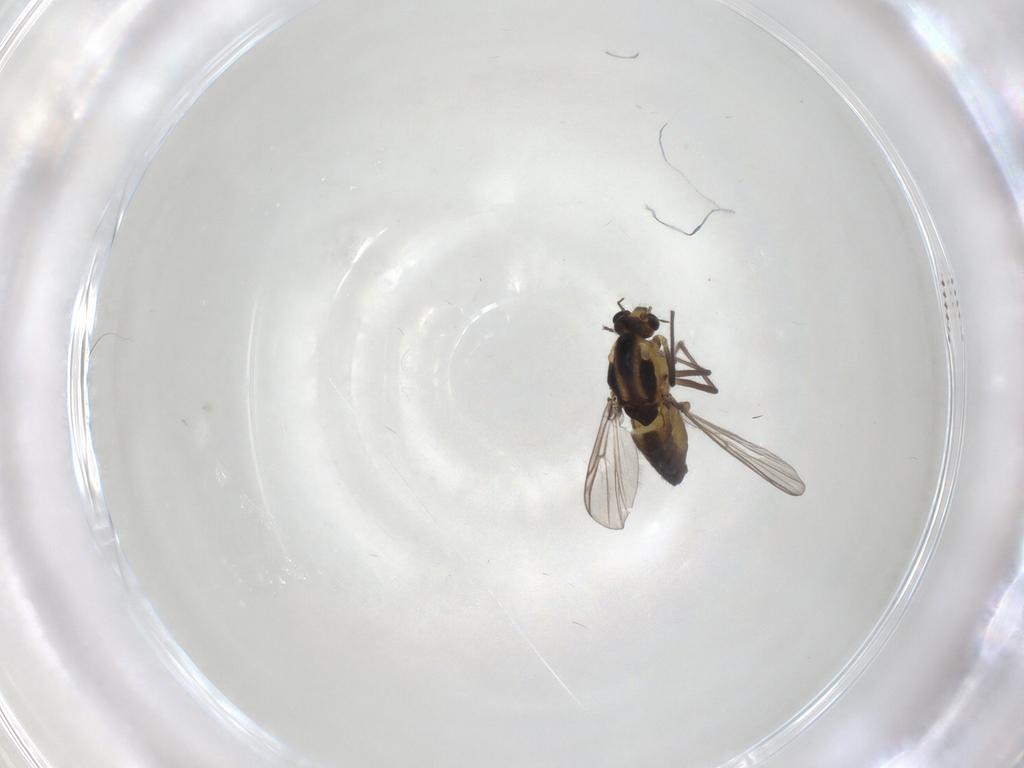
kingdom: Animalia
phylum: Arthropoda
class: Insecta
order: Diptera
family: Chironomidae
